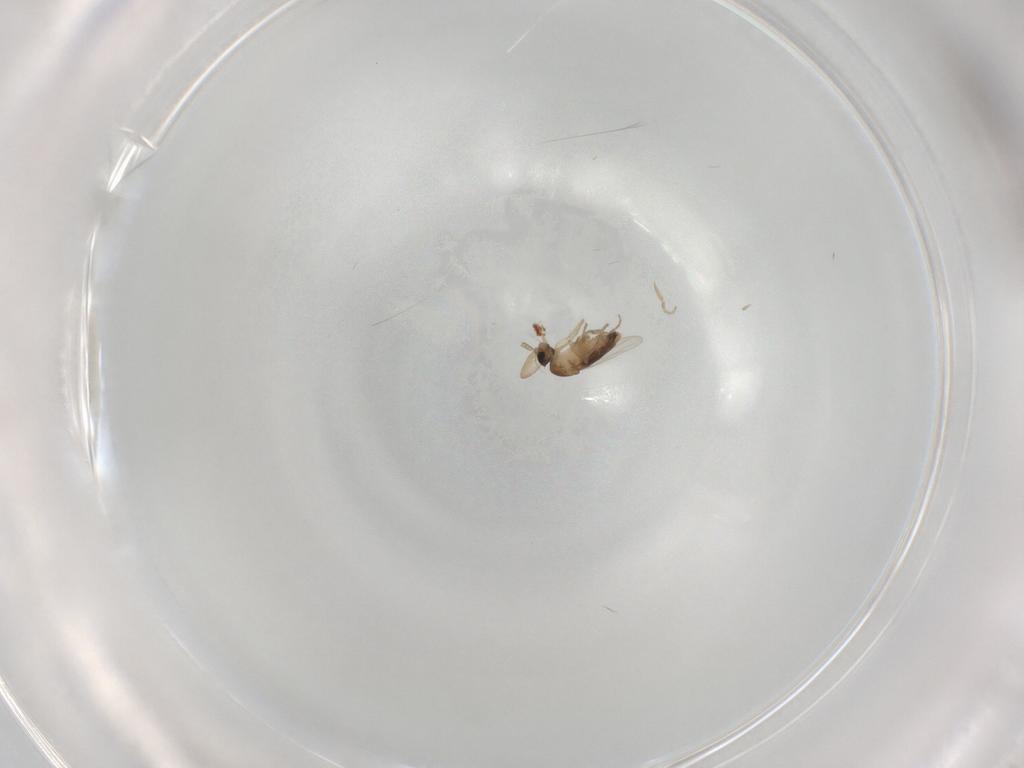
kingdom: Animalia
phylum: Arthropoda
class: Insecta
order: Diptera
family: Phoridae
